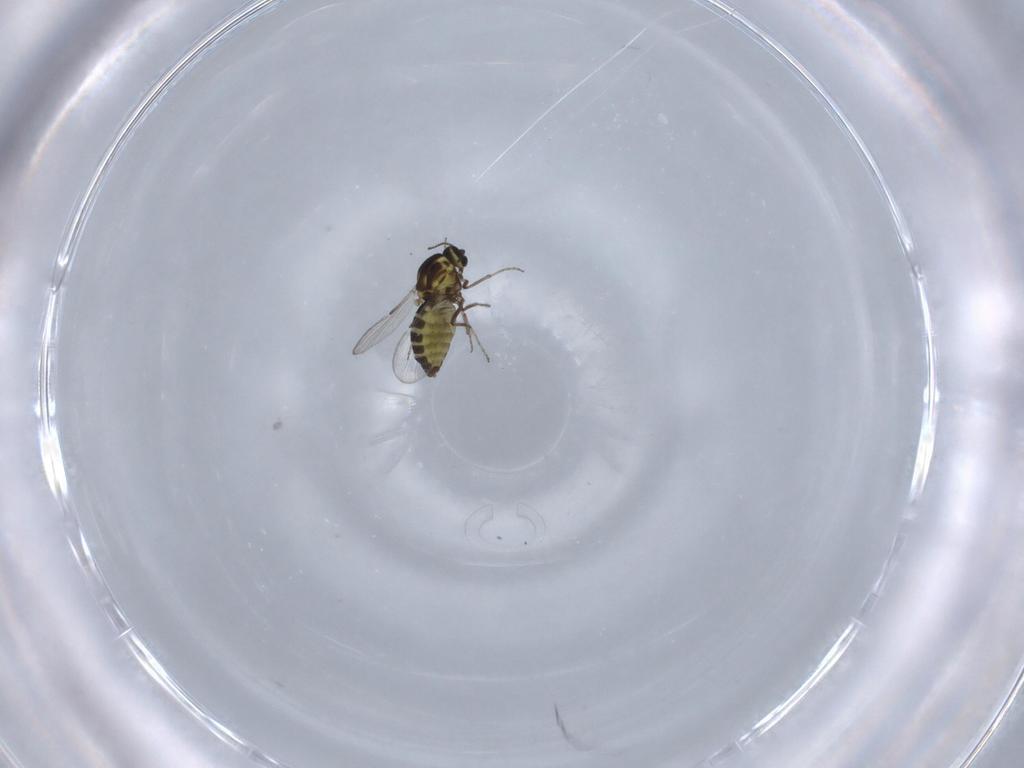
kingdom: Animalia
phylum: Arthropoda
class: Insecta
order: Diptera
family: Ceratopogonidae
